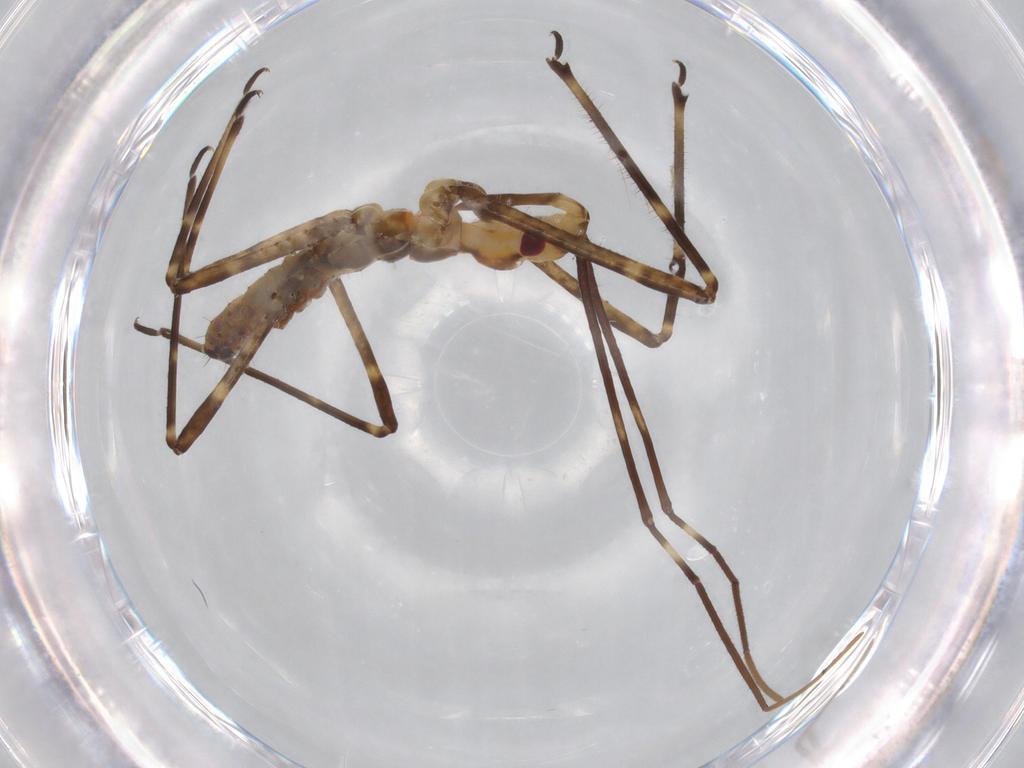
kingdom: Animalia
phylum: Arthropoda
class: Insecta
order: Hemiptera
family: Reduviidae
